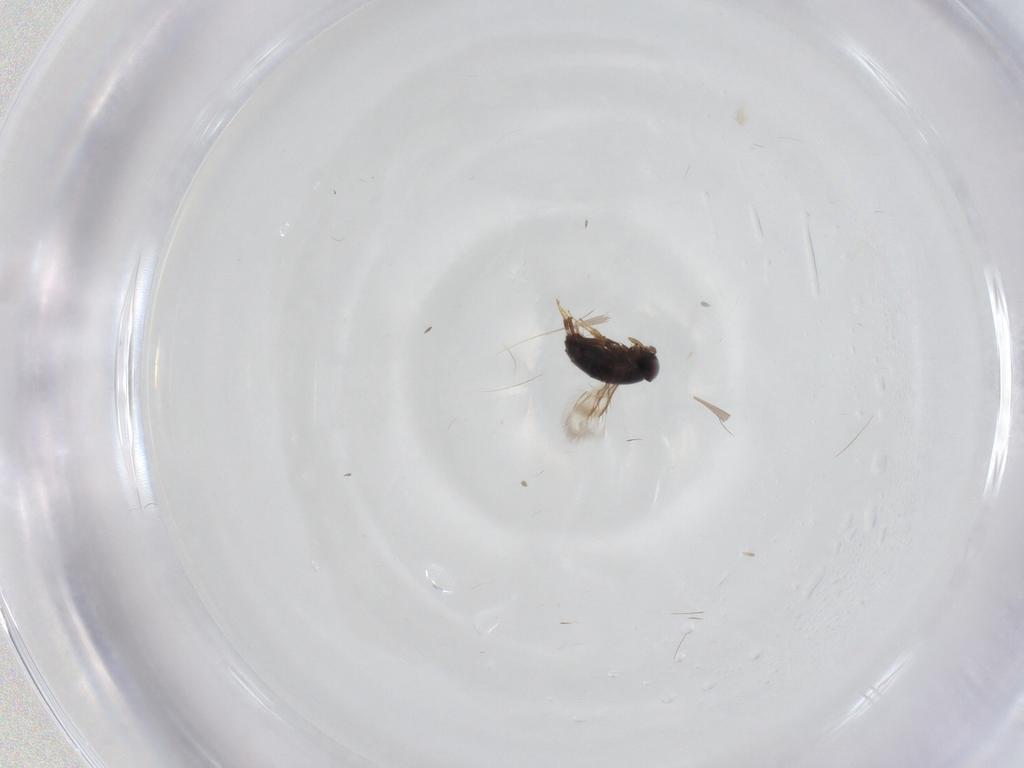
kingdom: Animalia
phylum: Arthropoda
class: Insecta
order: Hymenoptera
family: Signiphoridae
